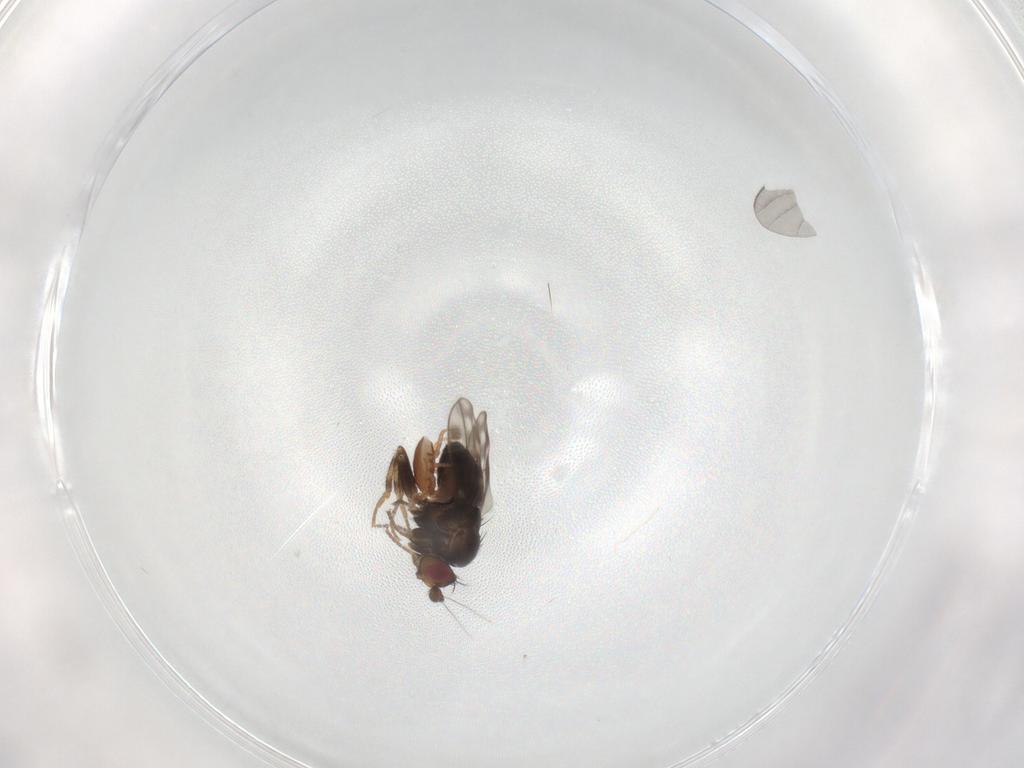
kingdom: Animalia
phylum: Arthropoda
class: Insecta
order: Diptera
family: Sciaridae
